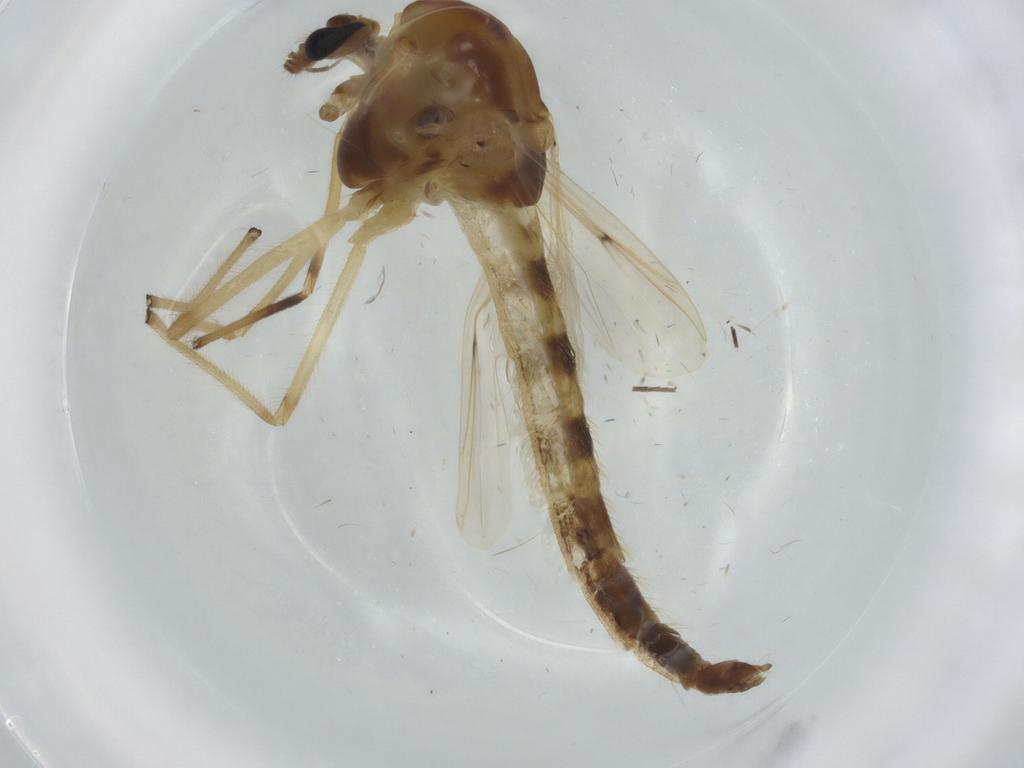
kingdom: Animalia
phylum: Arthropoda
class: Insecta
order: Diptera
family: Chironomidae
